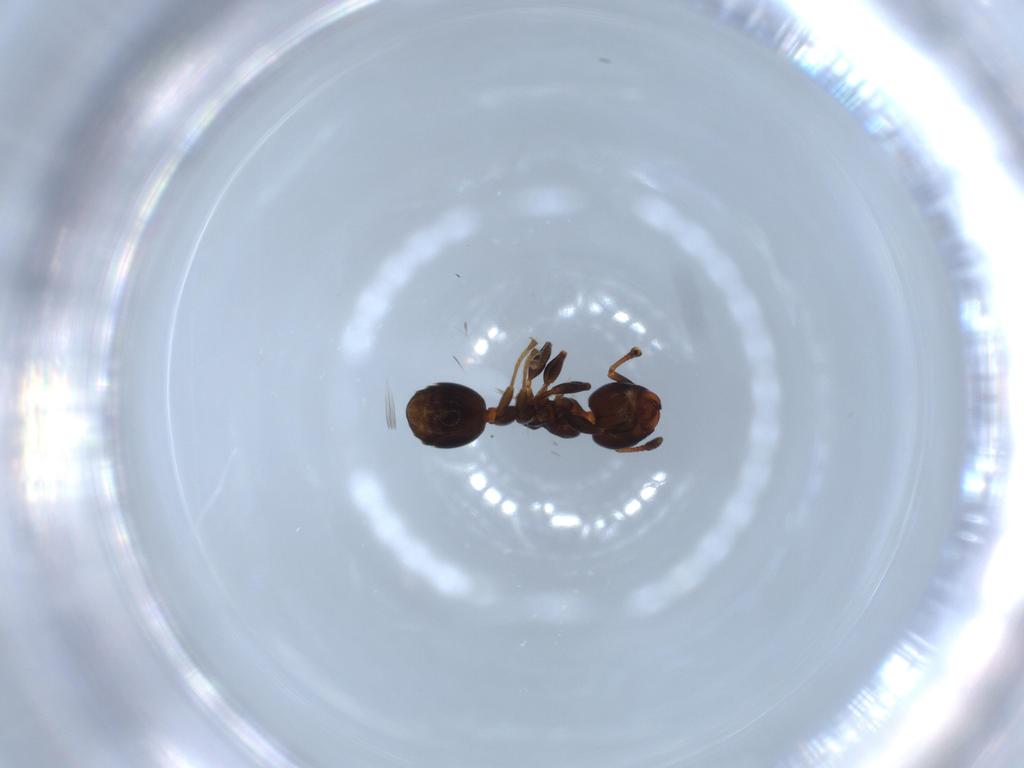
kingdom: Animalia
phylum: Arthropoda
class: Insecta
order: Hymenoptera
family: Formicidae
